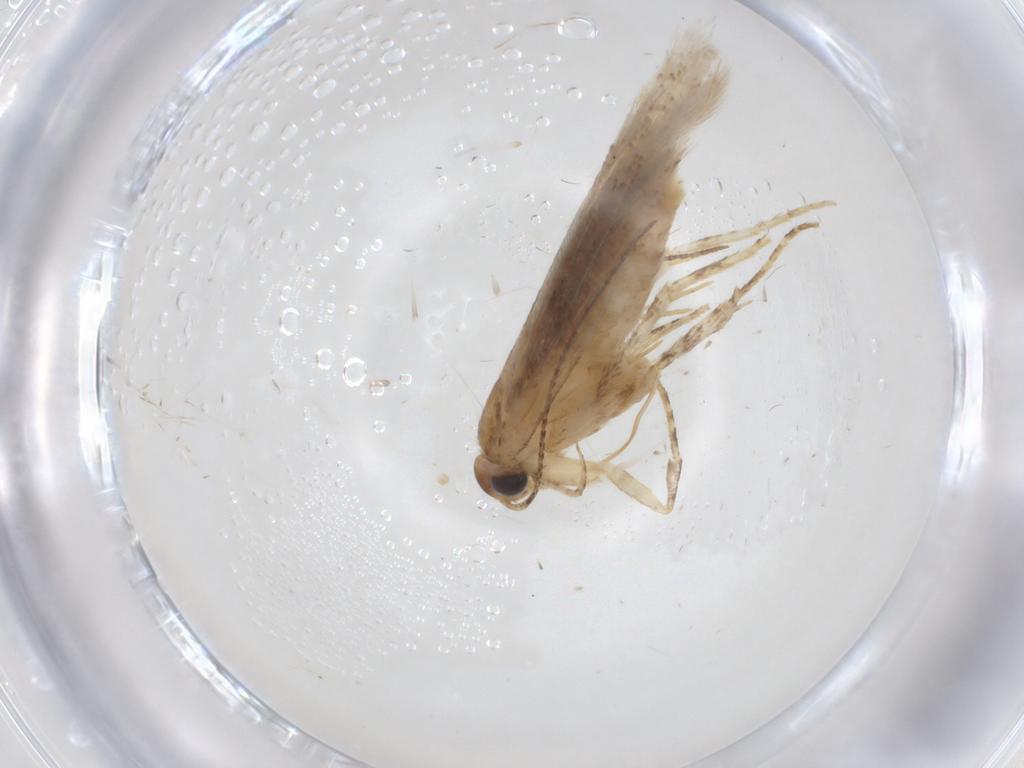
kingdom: Animalia
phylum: Arthropoda
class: Insecta
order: Lepidoptera
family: Gelechiidae
